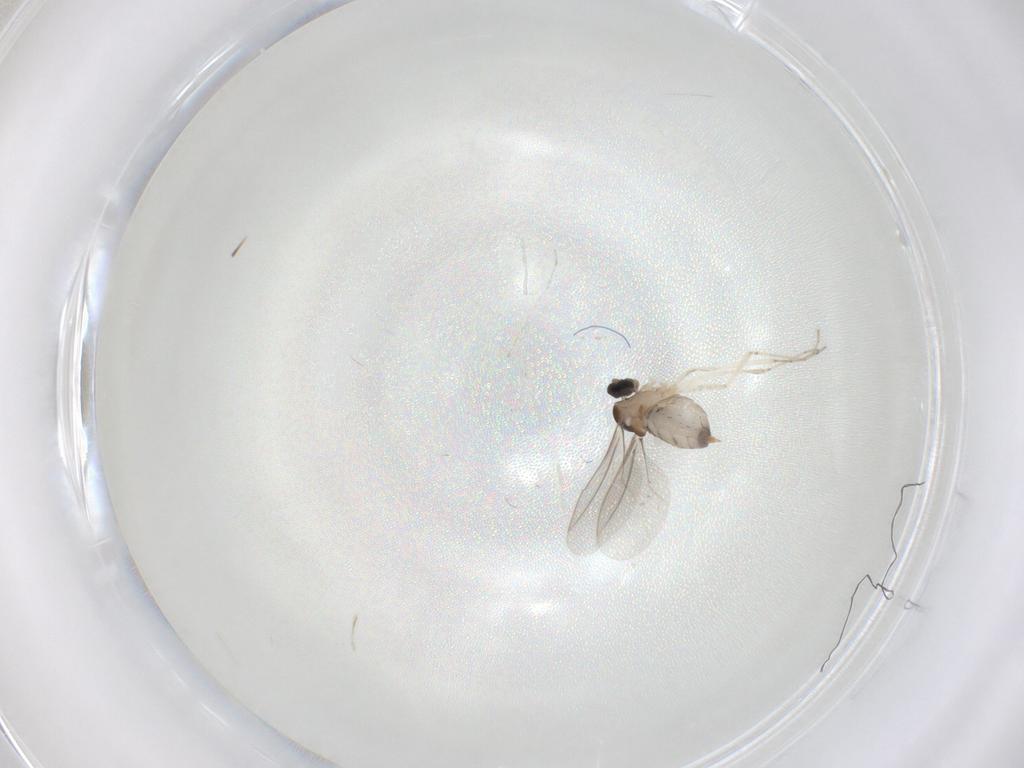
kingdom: Animalia
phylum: Arthropoda
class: Insecta
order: Diptera
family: Cecidomyiidae
